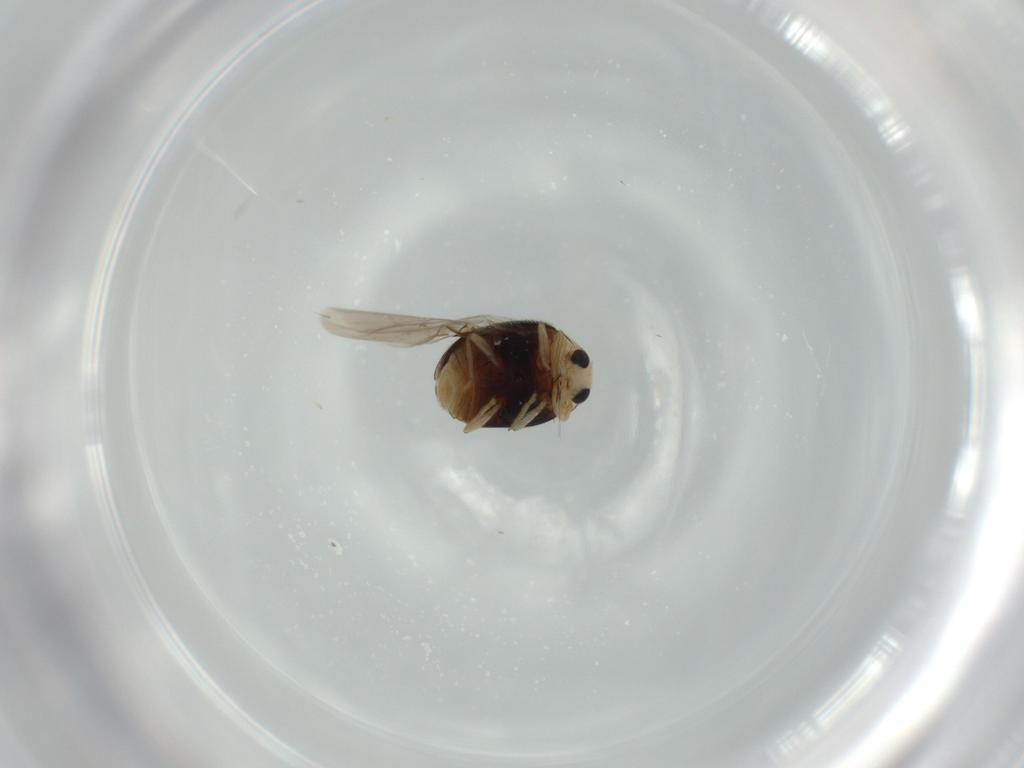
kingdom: Animalia
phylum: Arthropoda
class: Insecta
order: Coleoptera
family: Coccinellidae
